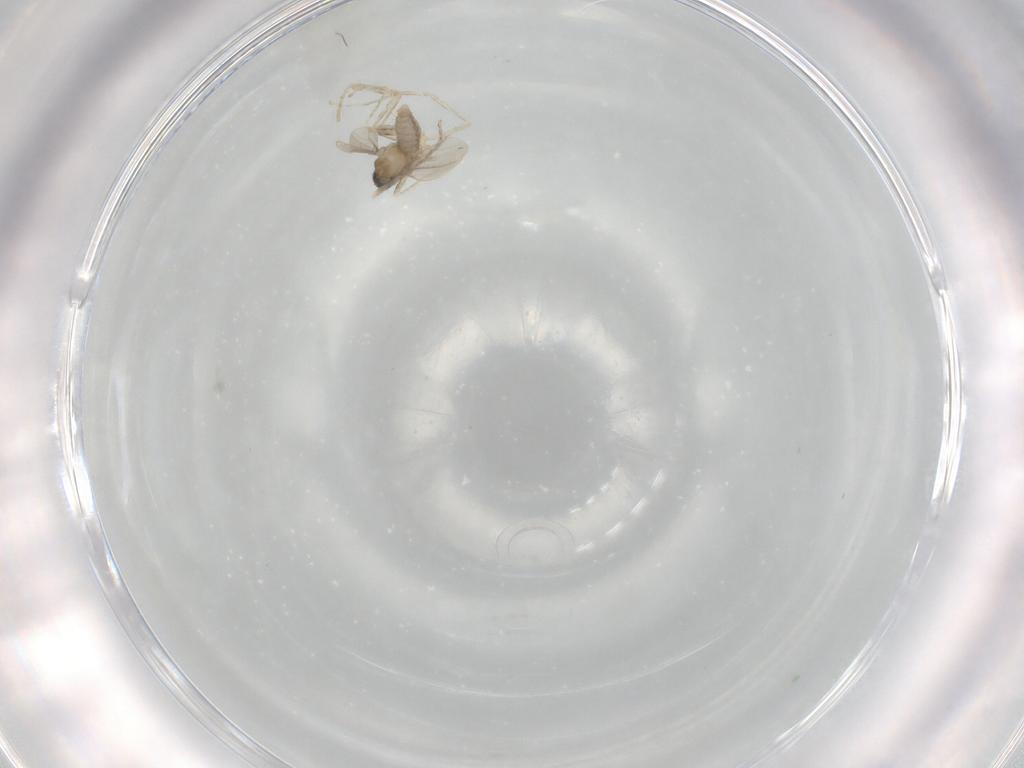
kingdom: Animalia
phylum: Arthropoda
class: Insecta
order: Diptera
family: Cecidomyiidae
